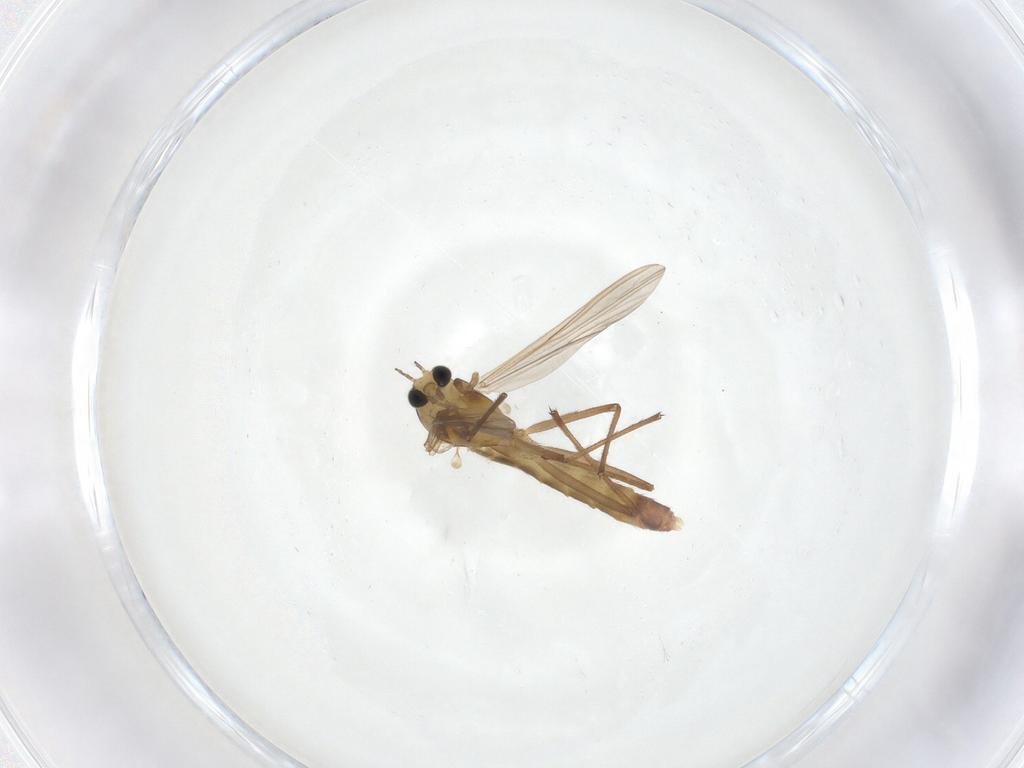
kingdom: Animalia
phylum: Arthropoda
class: Insecta
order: Diptera
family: Chironomidae
